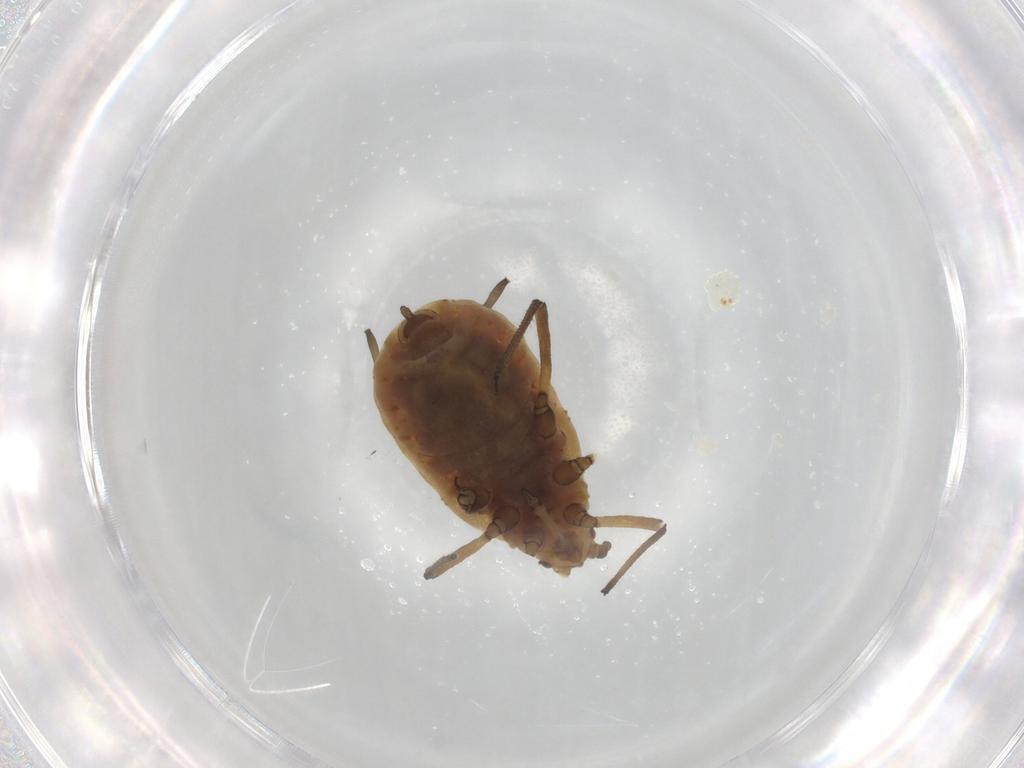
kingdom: Animalia
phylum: Arthropoda
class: Insecta
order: Hemiptera
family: Aphididae
